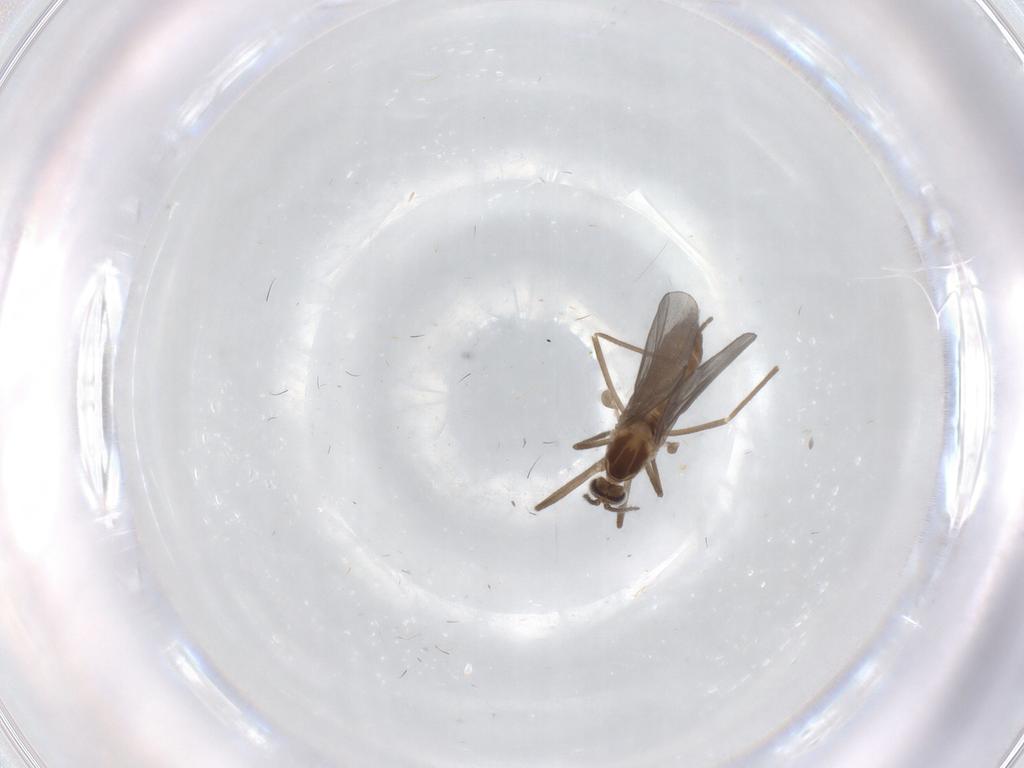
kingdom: Animalia
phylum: Arthropoda
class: Insecta
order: Diptera
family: Cecidomyiidae
